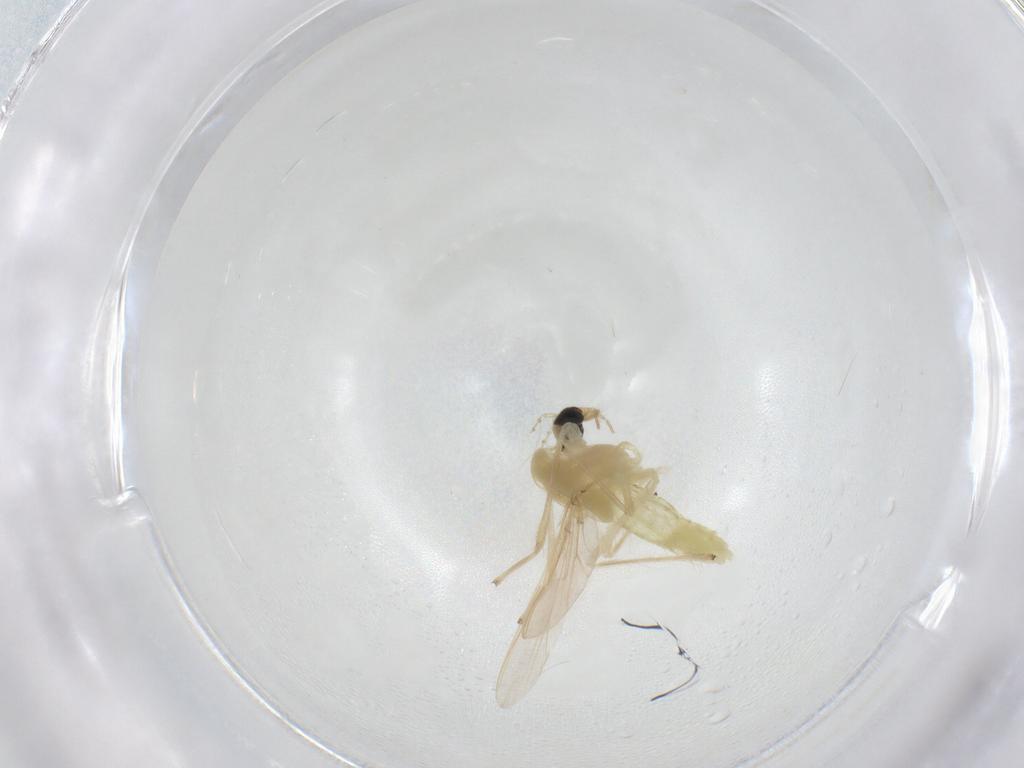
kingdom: Animalia
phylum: Arthropoda
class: Insecta
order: Diptera
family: Chironomidae
